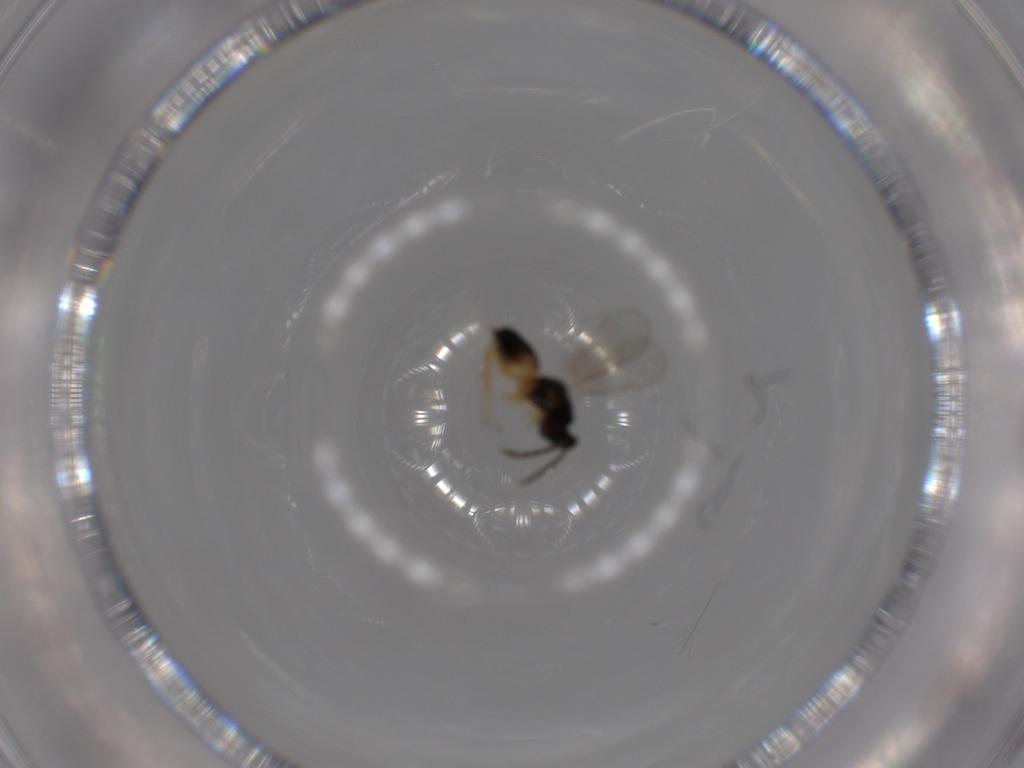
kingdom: Animalia
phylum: Arthropoda
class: Insecta
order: Hymenoptera
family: Eulophidae
